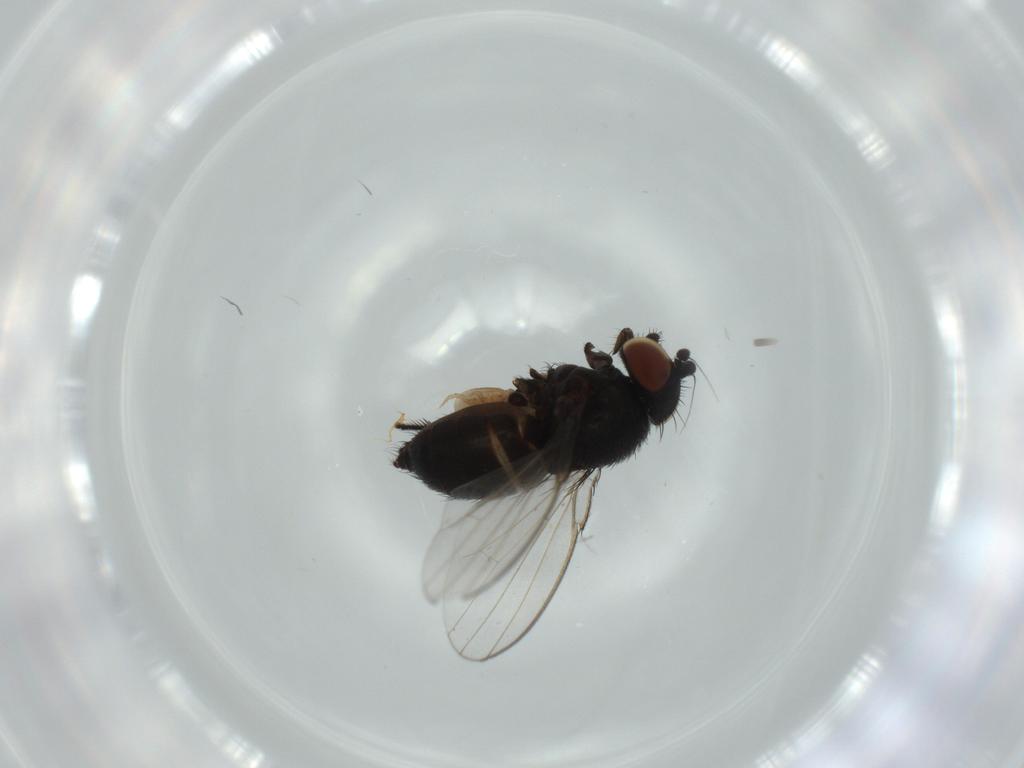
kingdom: Animalia
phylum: Arthropoda
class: Insecta
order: Diptera
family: Milichiidae
